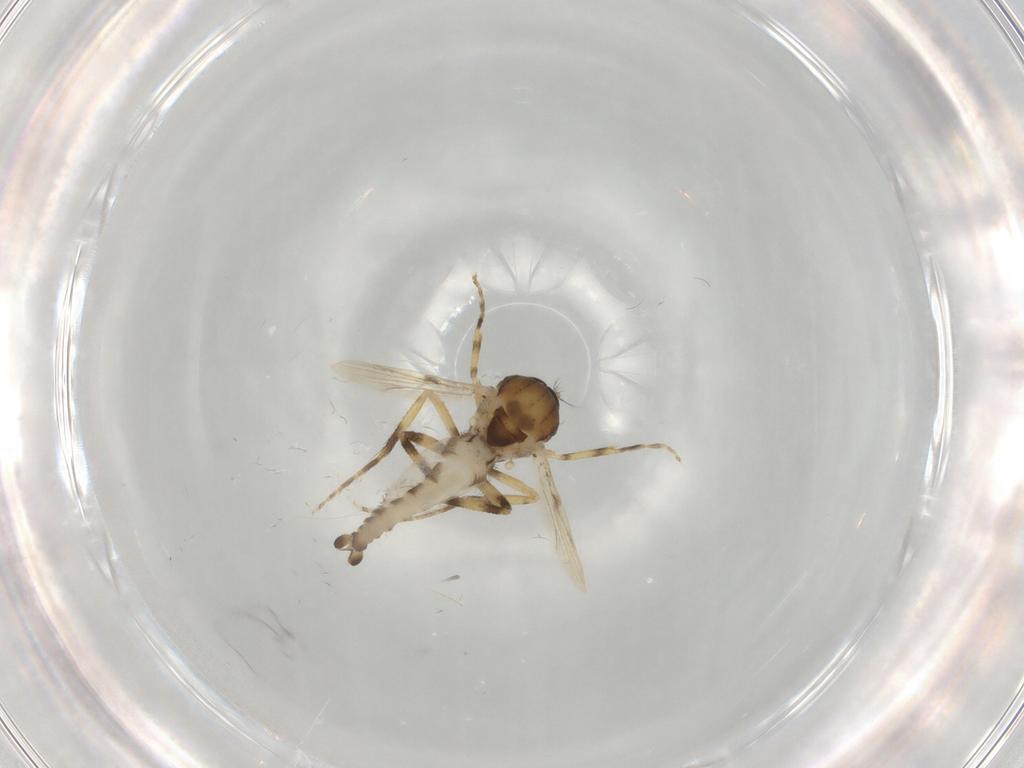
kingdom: Animalia
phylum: Arthropoda
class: Insecta
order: Diptera
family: Ceratopogonidae
